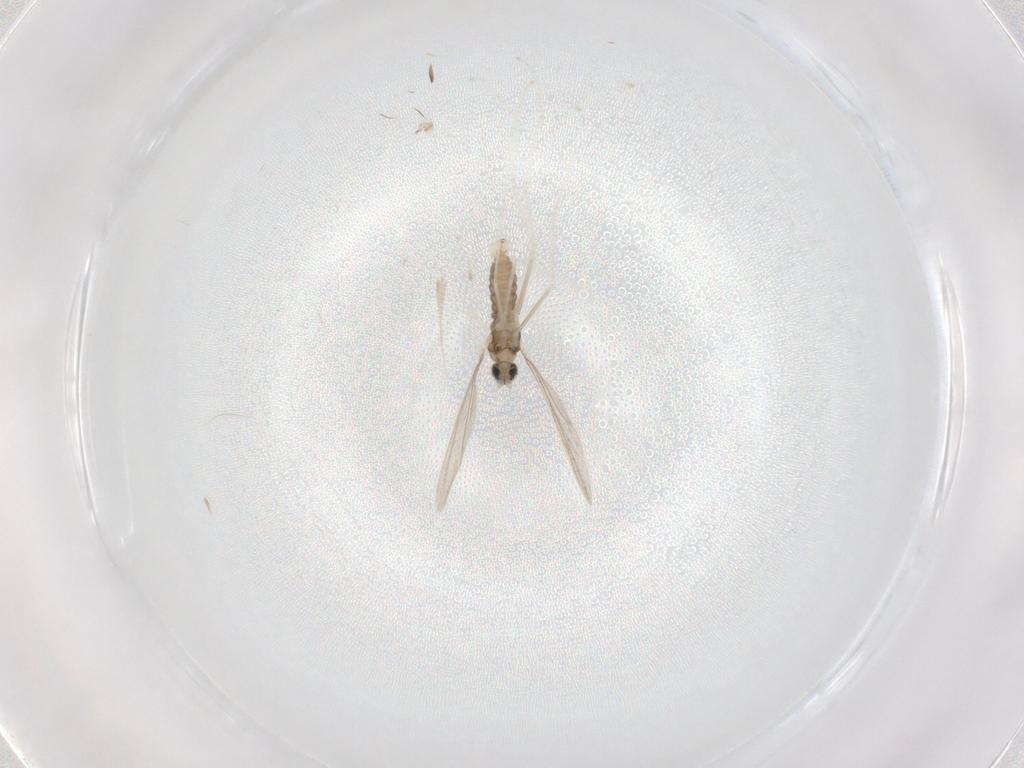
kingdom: Animalia
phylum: Arthropoda
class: Insecta
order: Diptera
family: Cecidomyiidae
